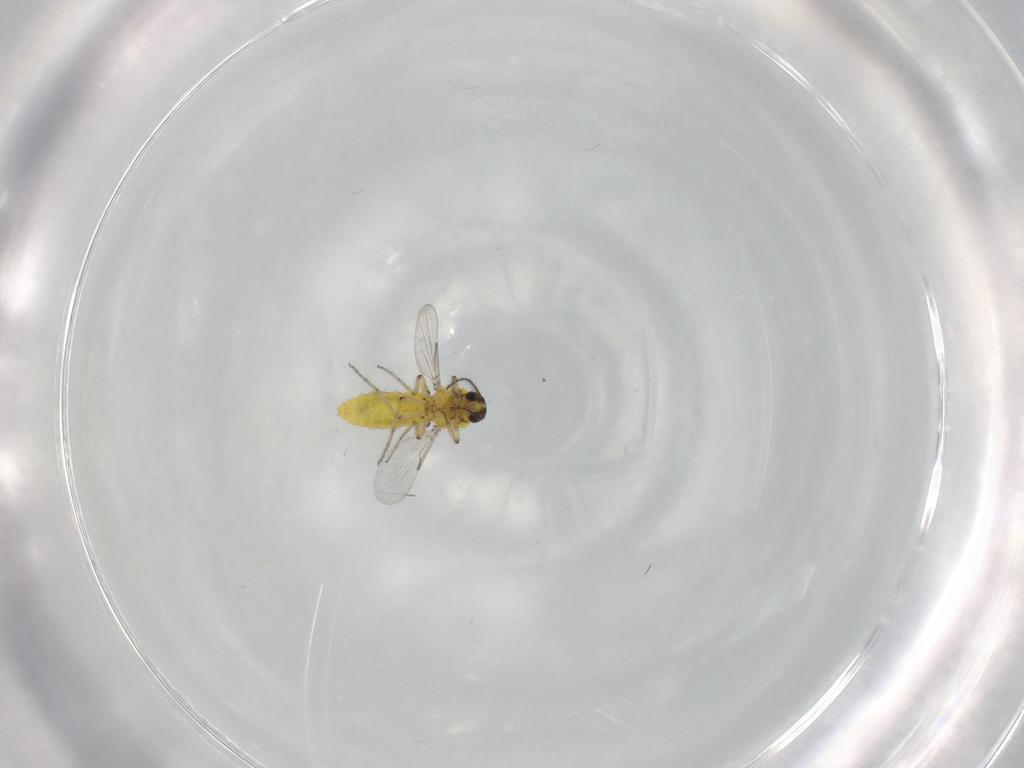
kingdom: Animalia
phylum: Arthropoda
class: Insecta
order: Diptera
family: Ceratopogonidae
